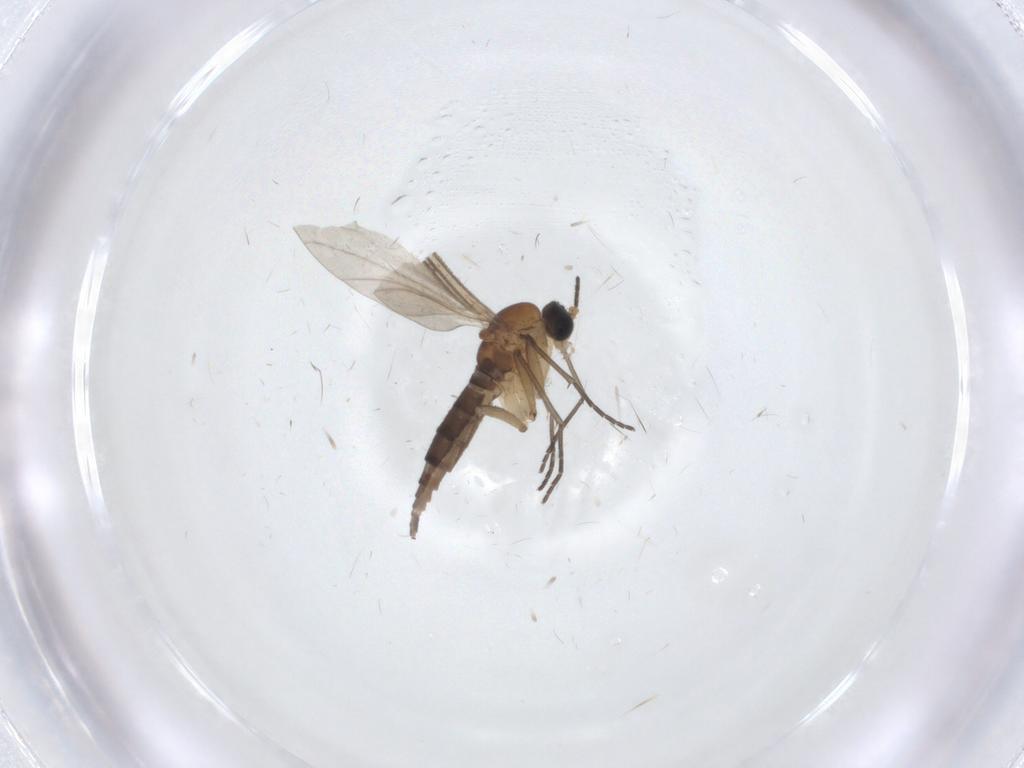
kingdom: Animalia
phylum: Arthropoda
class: Insecta
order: Diptera
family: Sciaridae
